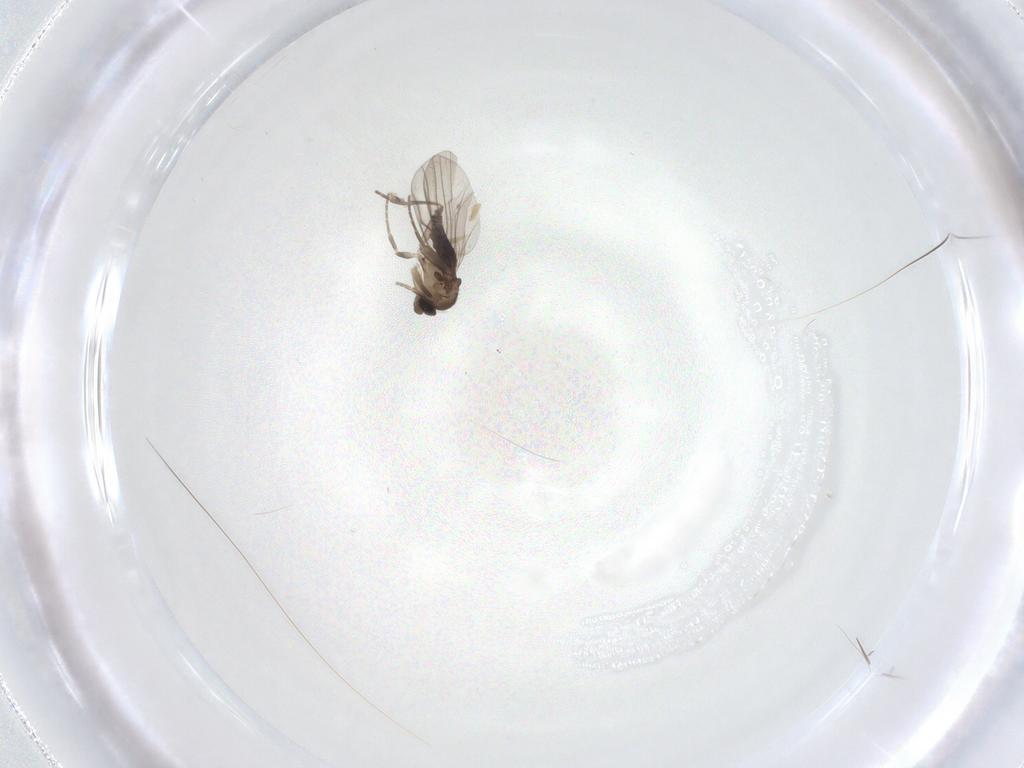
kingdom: Animalia
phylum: Arthropoda
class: Insecta
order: Diptera
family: Phoridae
